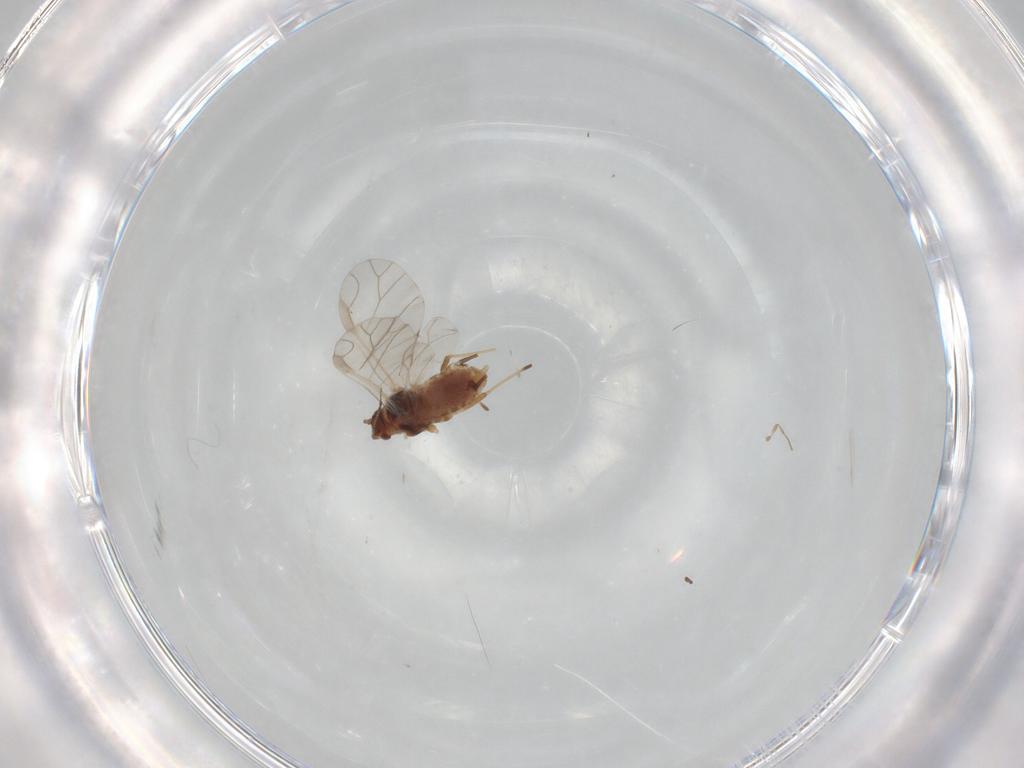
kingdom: Animalia
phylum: Arthropoda
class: Insecta
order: Hemiptera
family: Aphididae
